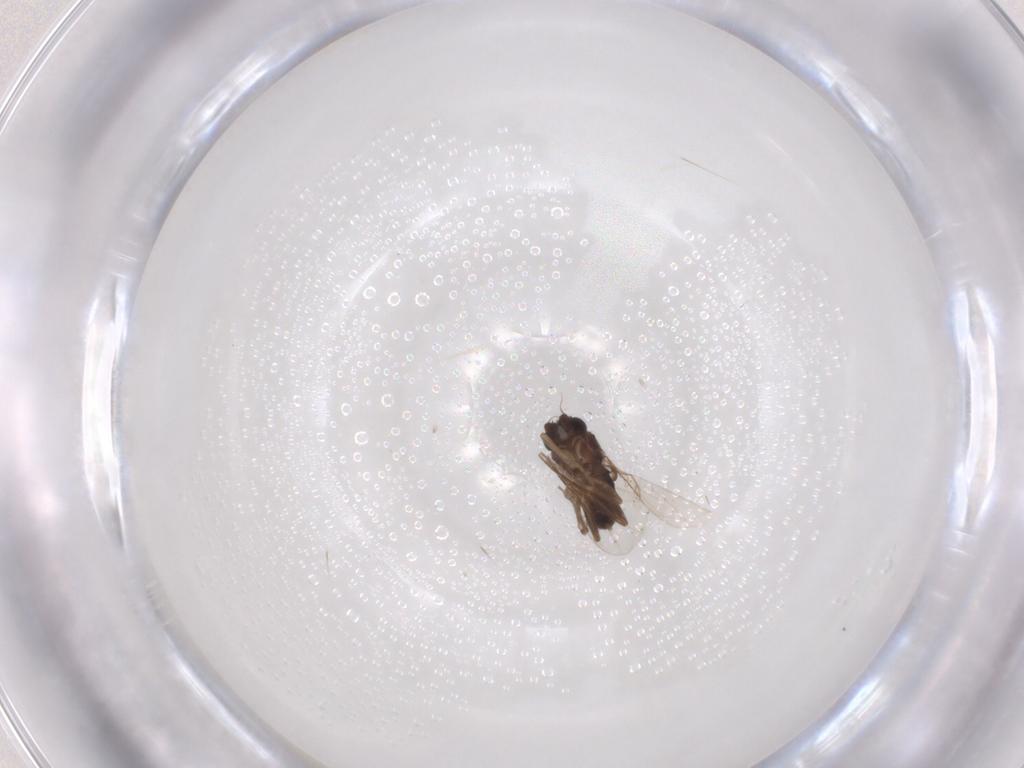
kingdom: Animalia
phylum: Arthropoda
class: Insecta
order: Diptera
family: Phoridae
